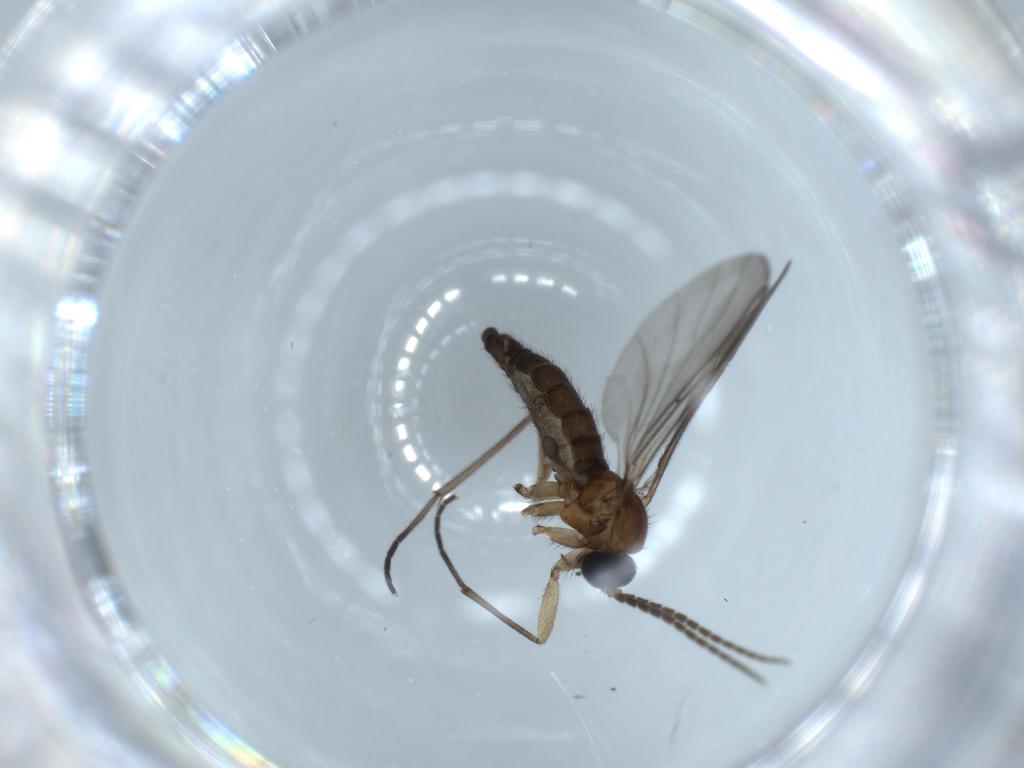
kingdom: Animalia
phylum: Arthropoda
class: Insecta
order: Diptera
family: Sciaridae
